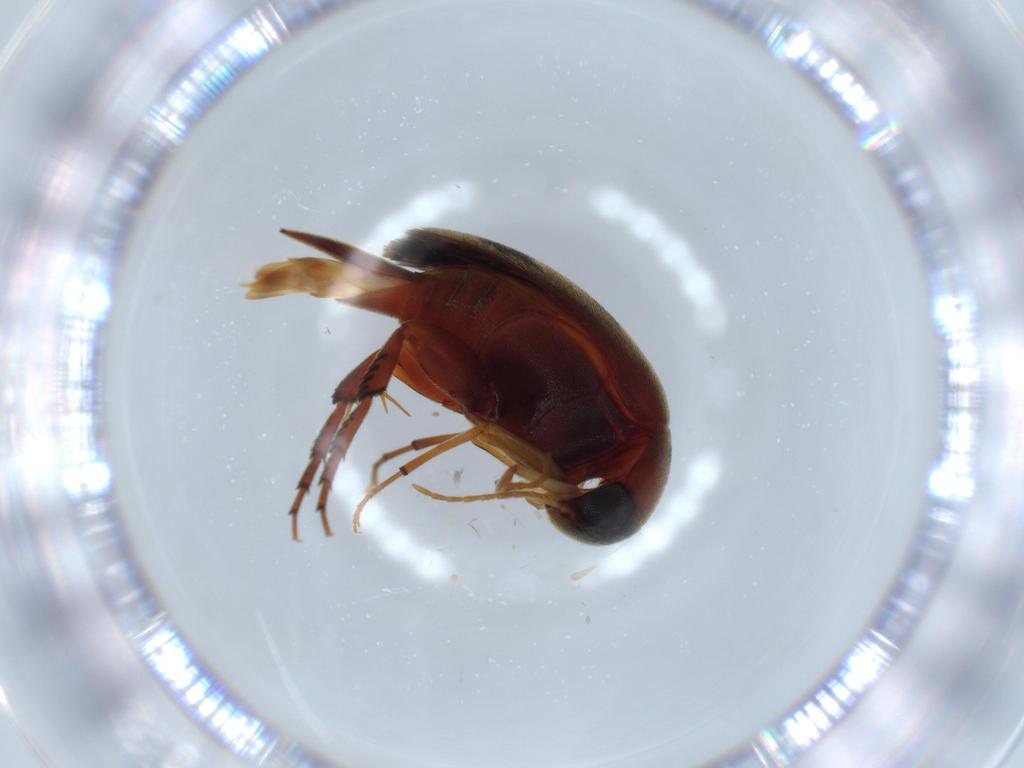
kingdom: Animalia
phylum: Arthropoda
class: Insecta
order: Coleoptera
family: Mordellidae
